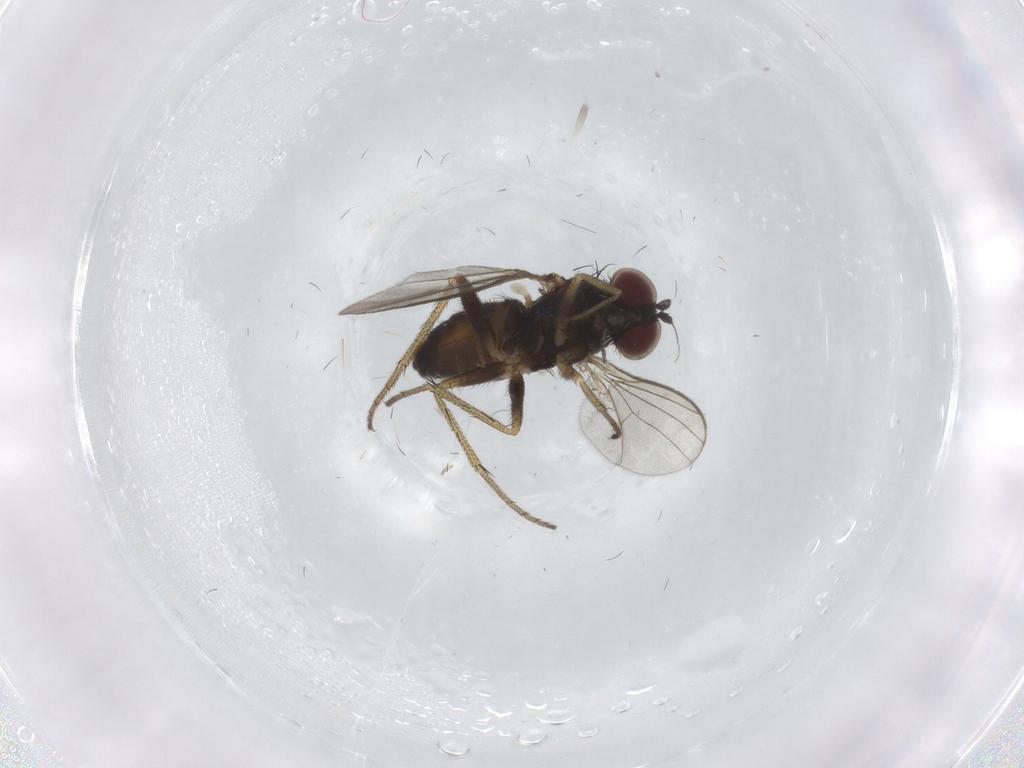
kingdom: Animalia
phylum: Arthropoda
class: Insecta
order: Diptera
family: Sciaridae
